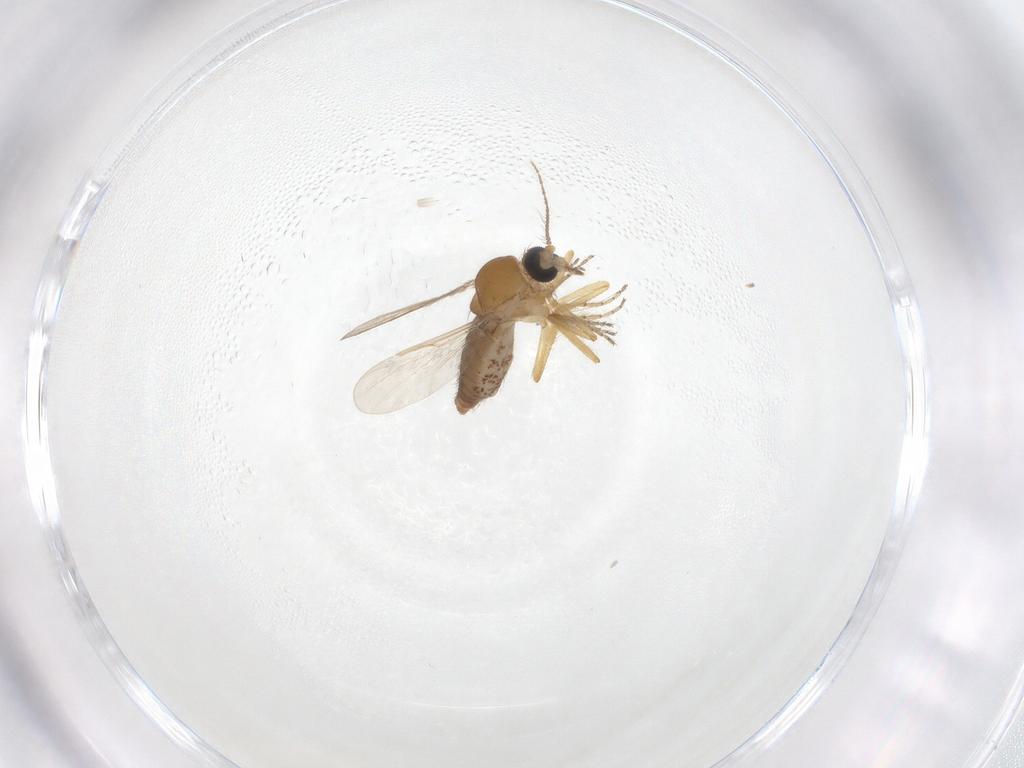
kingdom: Animalia
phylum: Arthropoda
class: Insecta
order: Diptera
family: Ceratopogonidae
